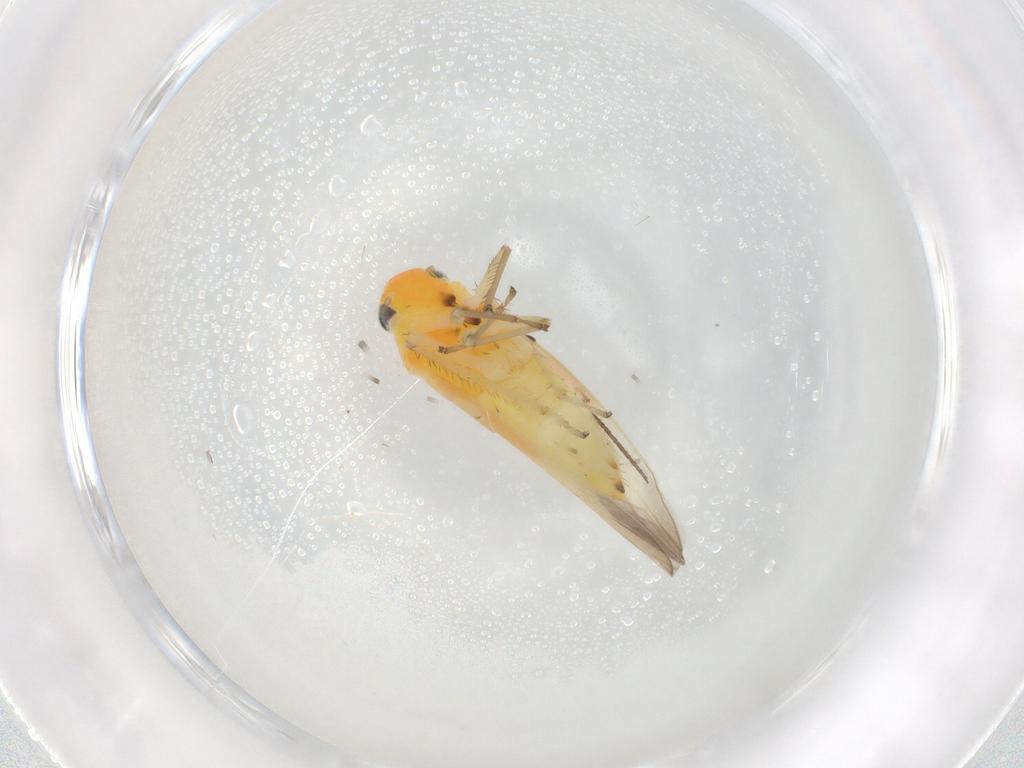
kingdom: Animalia
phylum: Arthropoda
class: Insecta
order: Hemiptera
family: Cicadellidae
